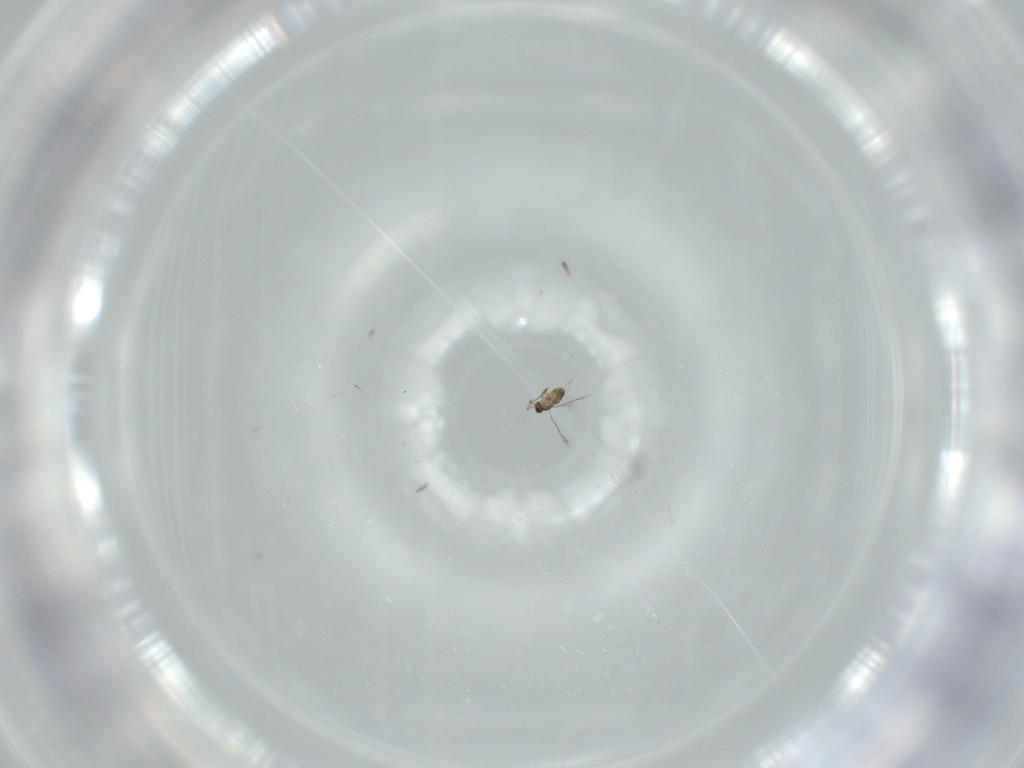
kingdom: Animalia
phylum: Arthropoda
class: Insecta
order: Hymenoptera
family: Mymaridae
